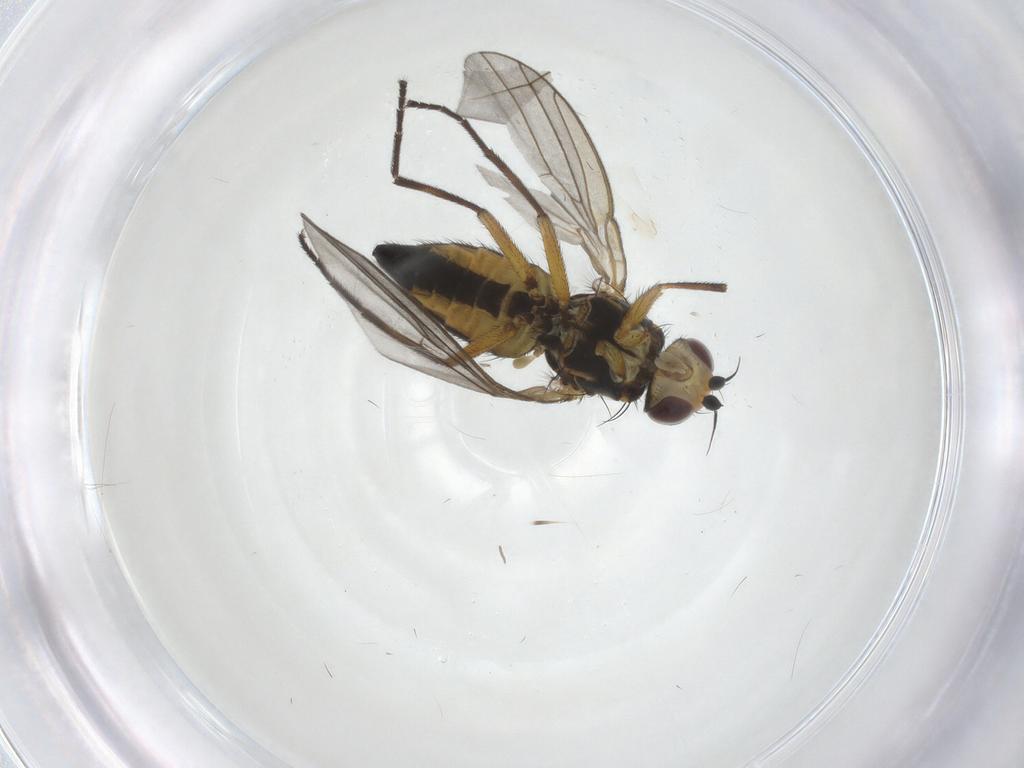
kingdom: Animalia
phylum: Arthropoda
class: Insecta
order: Diptera
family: Agromyzidae
